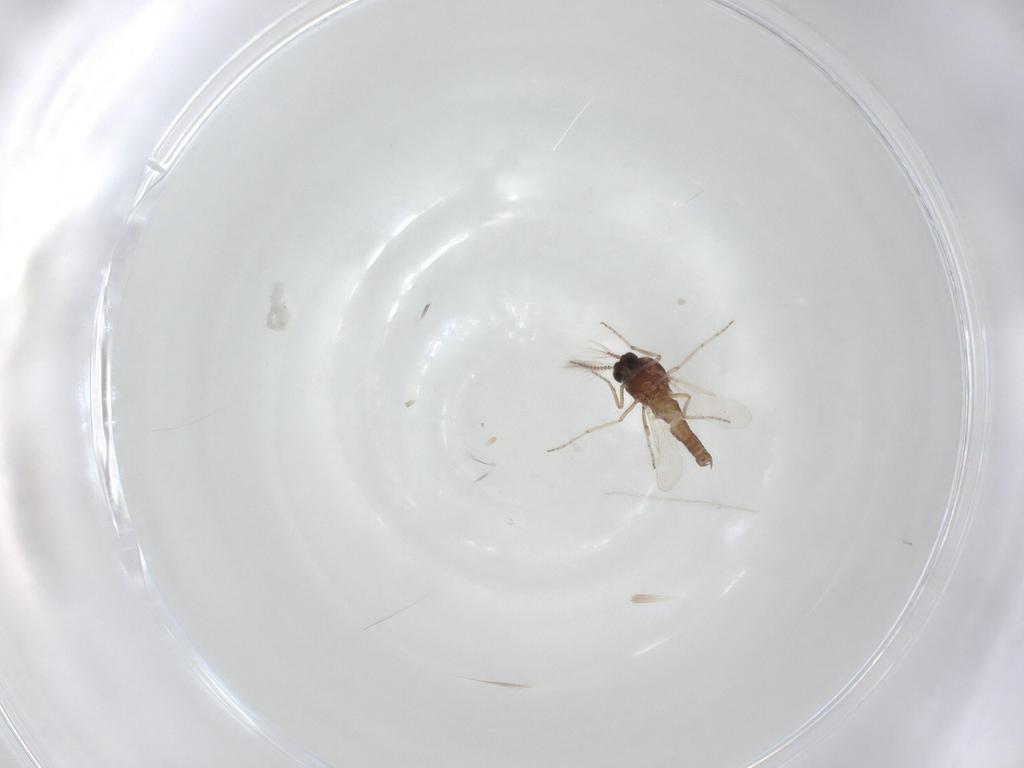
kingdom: Animalia
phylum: Arthropoda
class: Insecta
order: Diptera
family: Ceratopogonidae
